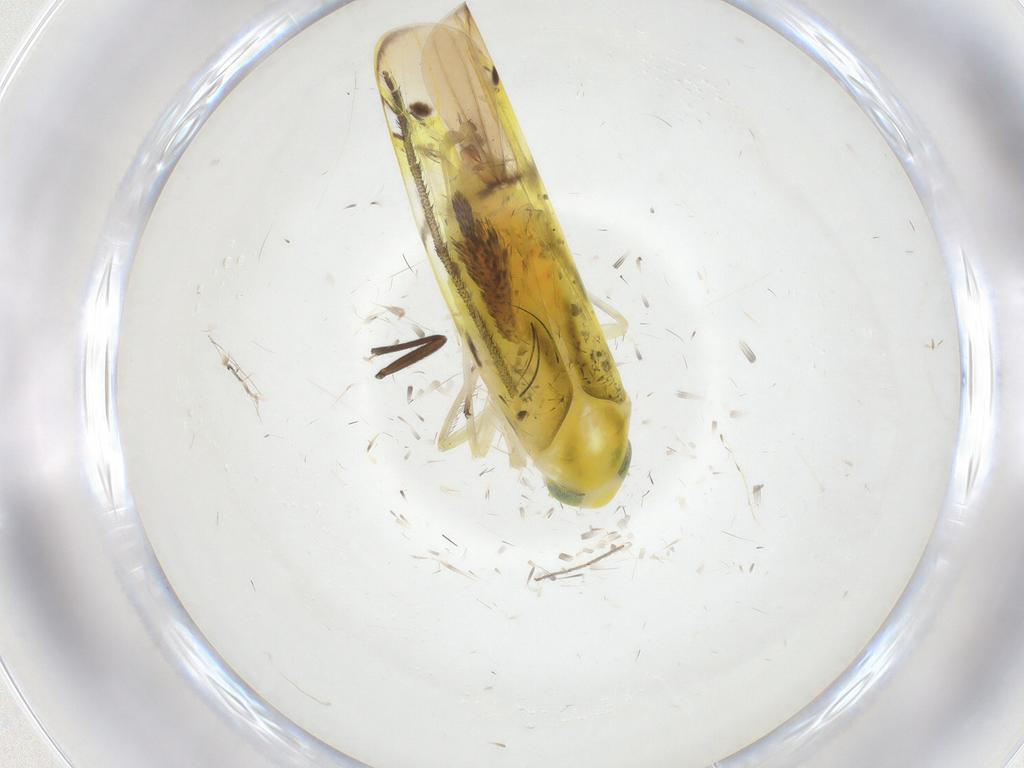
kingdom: Animalia
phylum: Arthropoda
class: Insecta
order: Hemiptera
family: Cicadellidae
